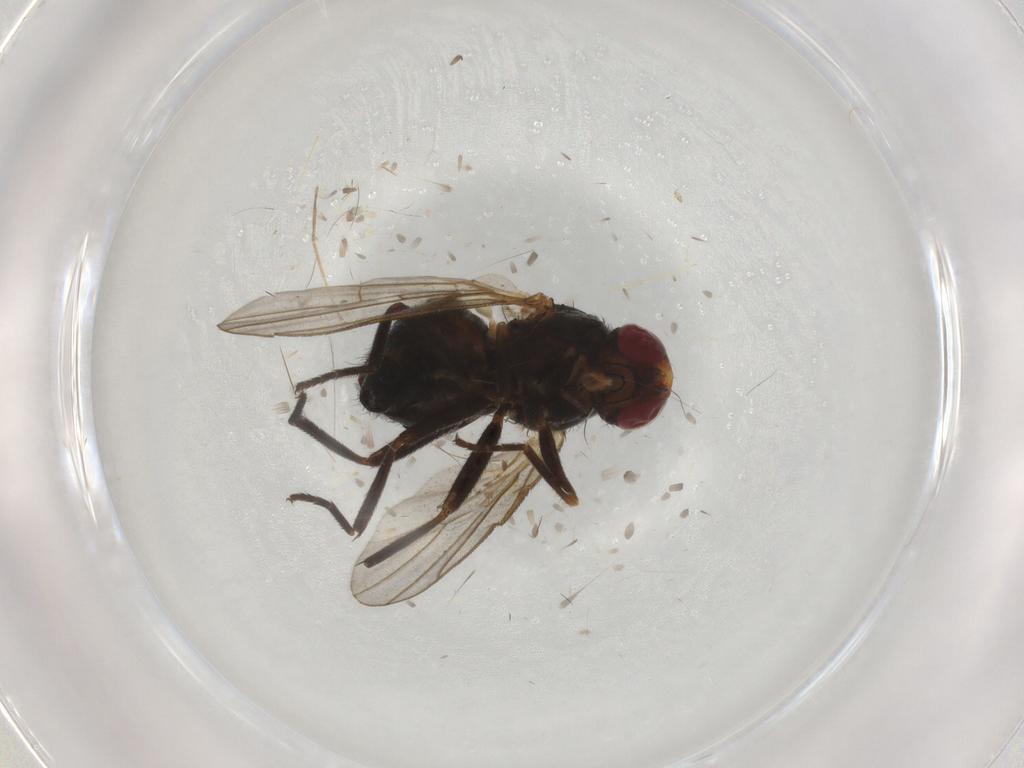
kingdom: Animalia
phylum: Arthropoda
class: Insecta
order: Diptera
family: Cecidomyiidae
